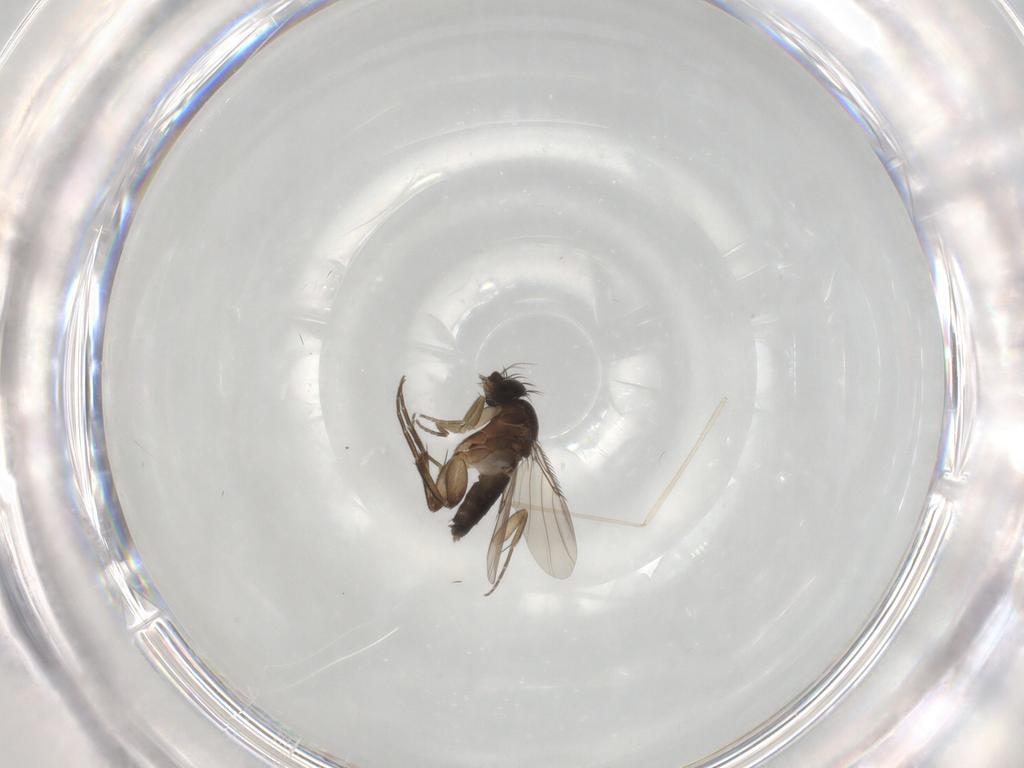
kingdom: Animalia
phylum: Arthropoda
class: Insecta
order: Diptera
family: Phoridae
